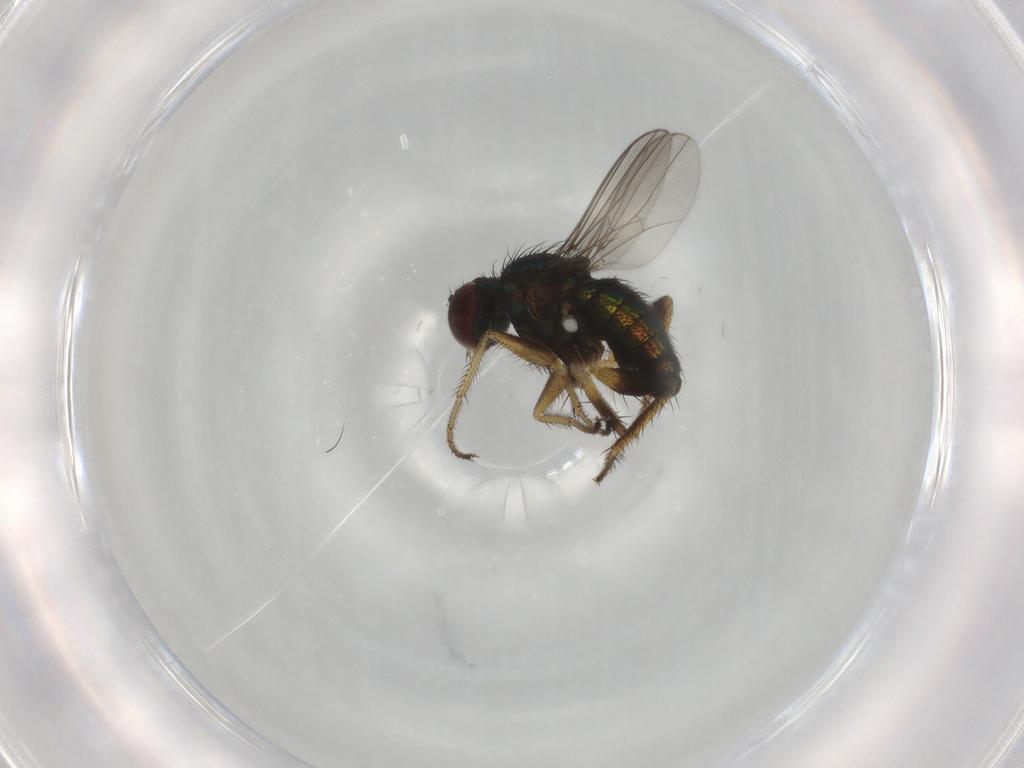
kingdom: Animalia
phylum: Arthropoda
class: Insecta
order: Diptera
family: Dolichopodidae
